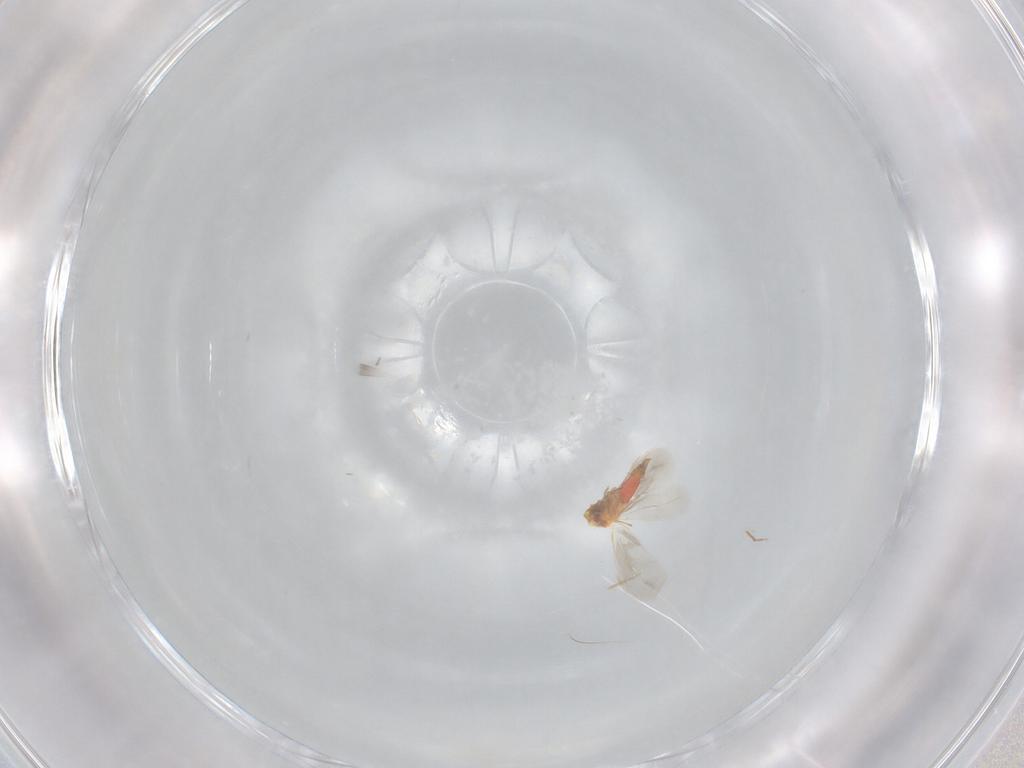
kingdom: Animalia
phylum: Arthropoda
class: Insecta
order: Hemiptera
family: Aleyrodidae
